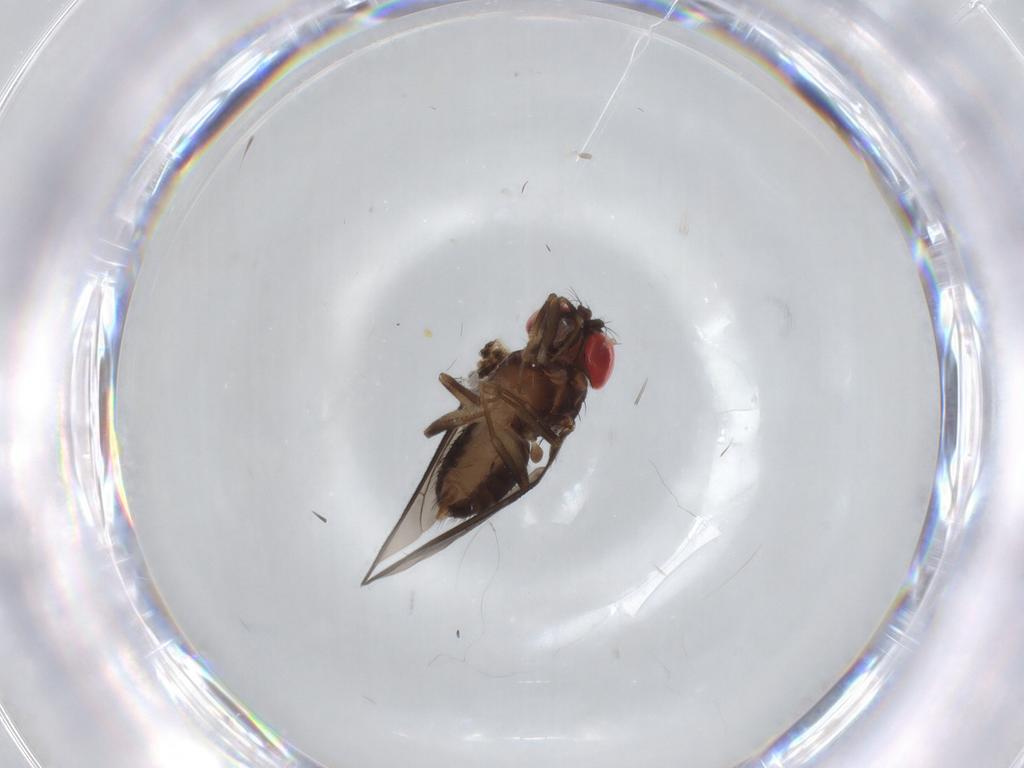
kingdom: Animalia
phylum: Arthropoda
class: Insecta
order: Diptera
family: Drosophilidae
